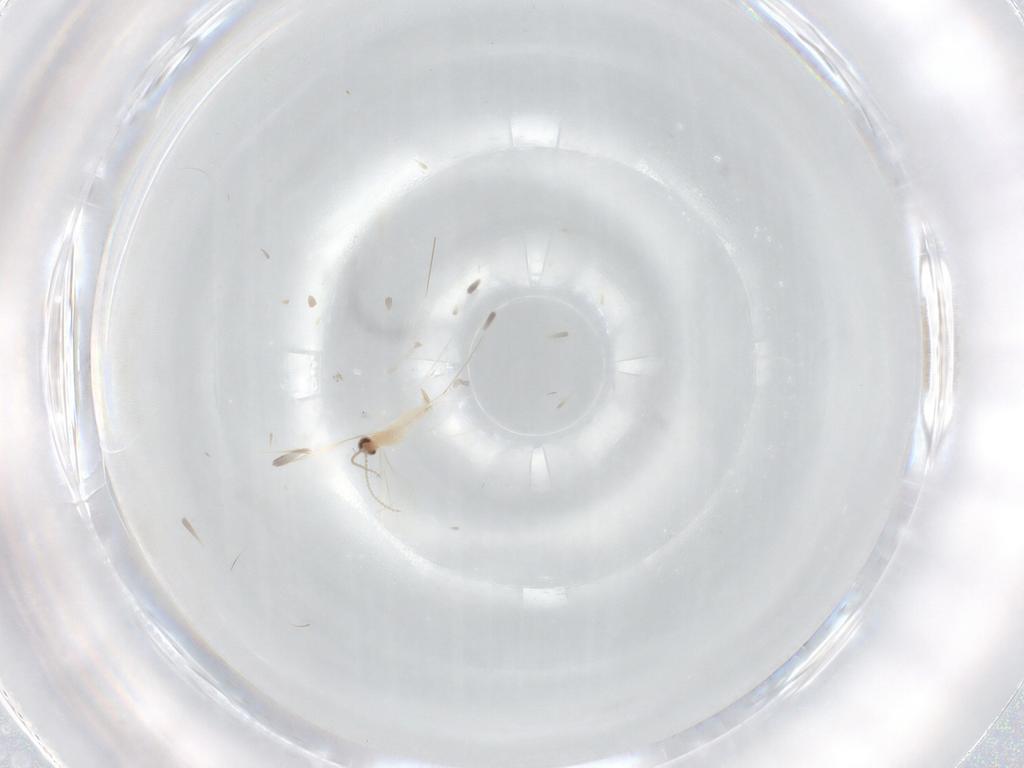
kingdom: Animalia
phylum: Arthropoda
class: Insecta
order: Diptera
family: Cecidomyiidae
